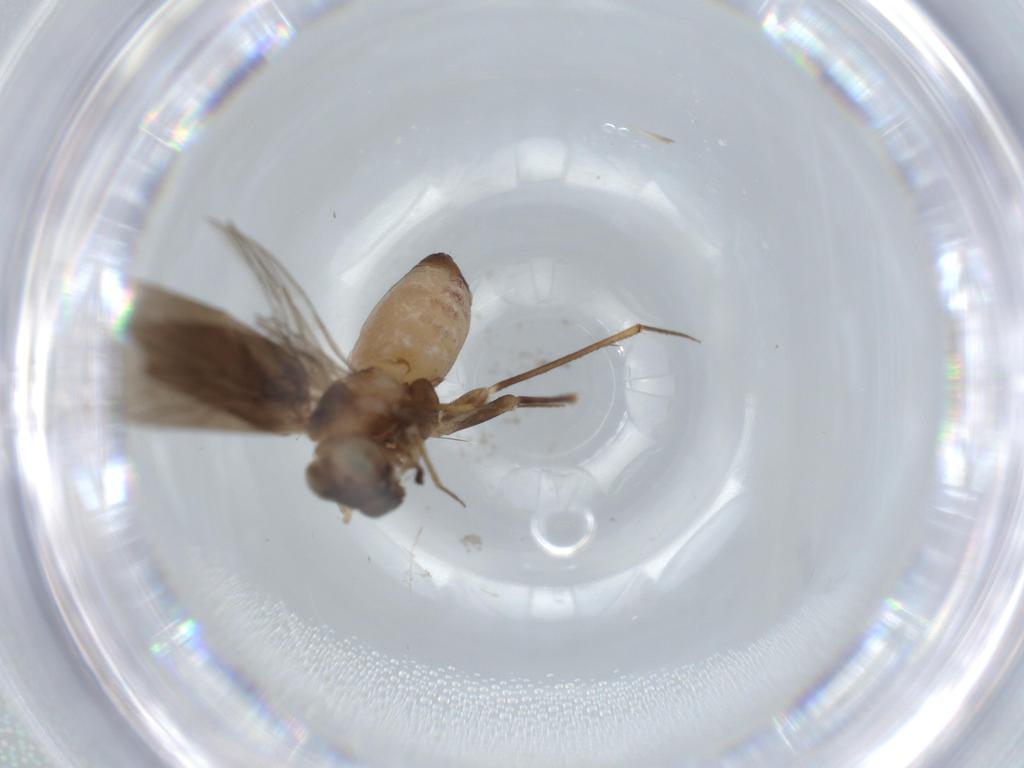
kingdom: Animalia
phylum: Arthropoda
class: Insecta
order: Psocodea
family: Lepidopsocidae
